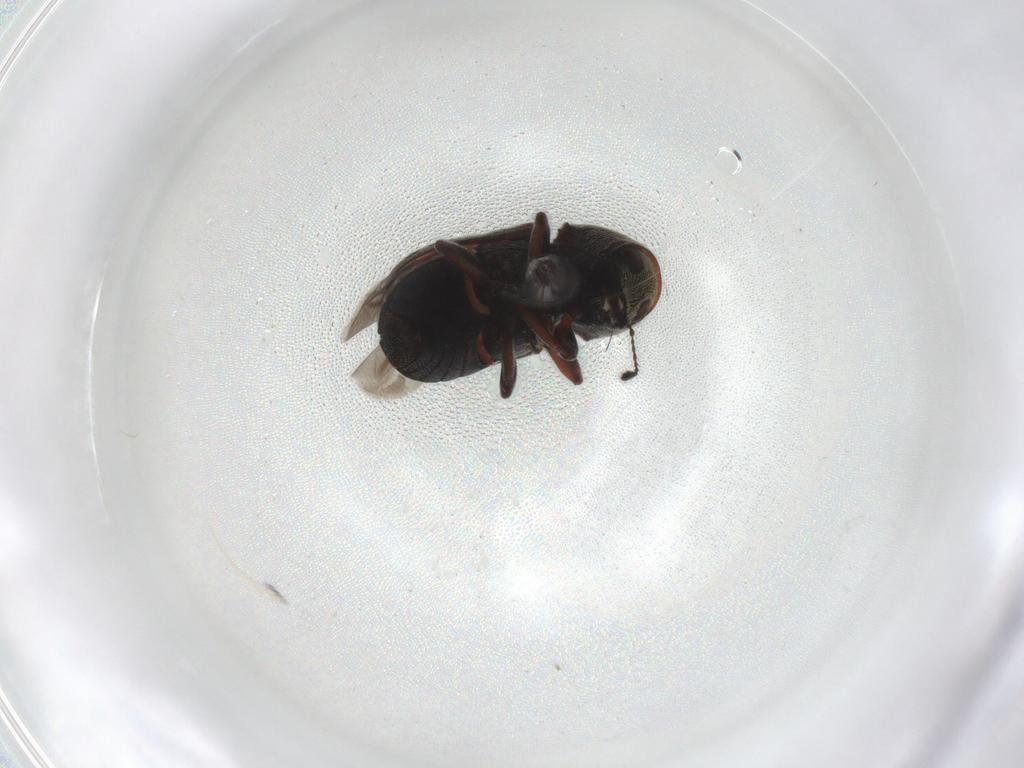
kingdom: Animalia
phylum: Arthropoda
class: Insecta
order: Coleoptera
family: Anthribidae
